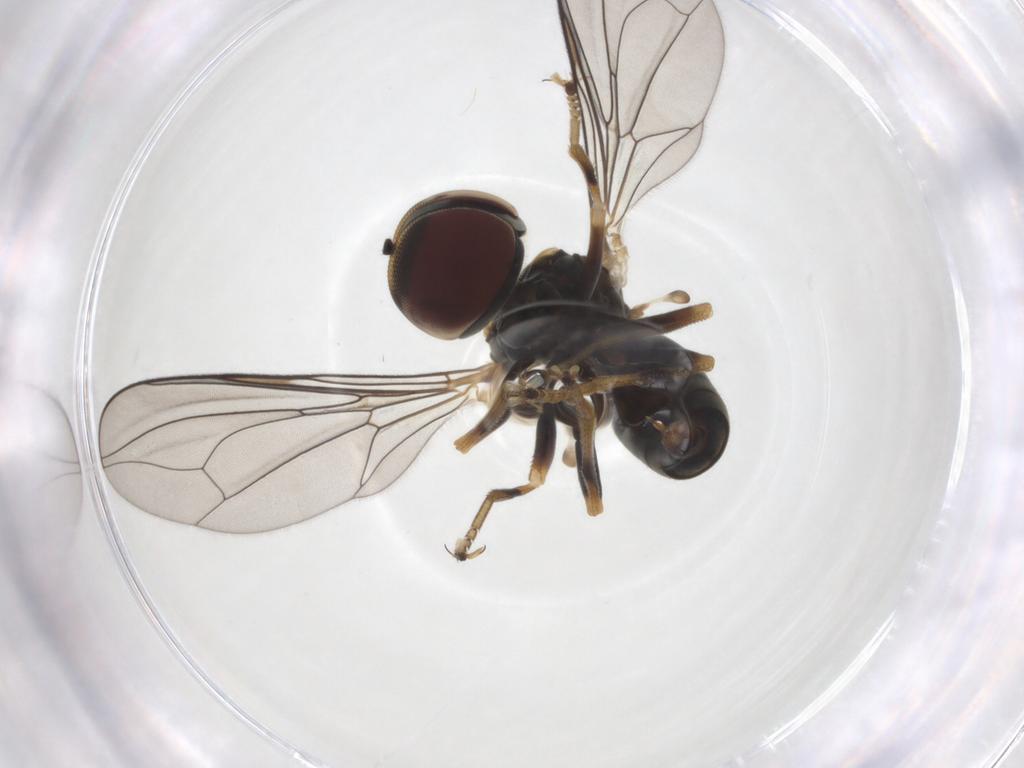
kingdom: Animalia
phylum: Arthropoda
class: Insecta
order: Diptera
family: Pipunculidae
